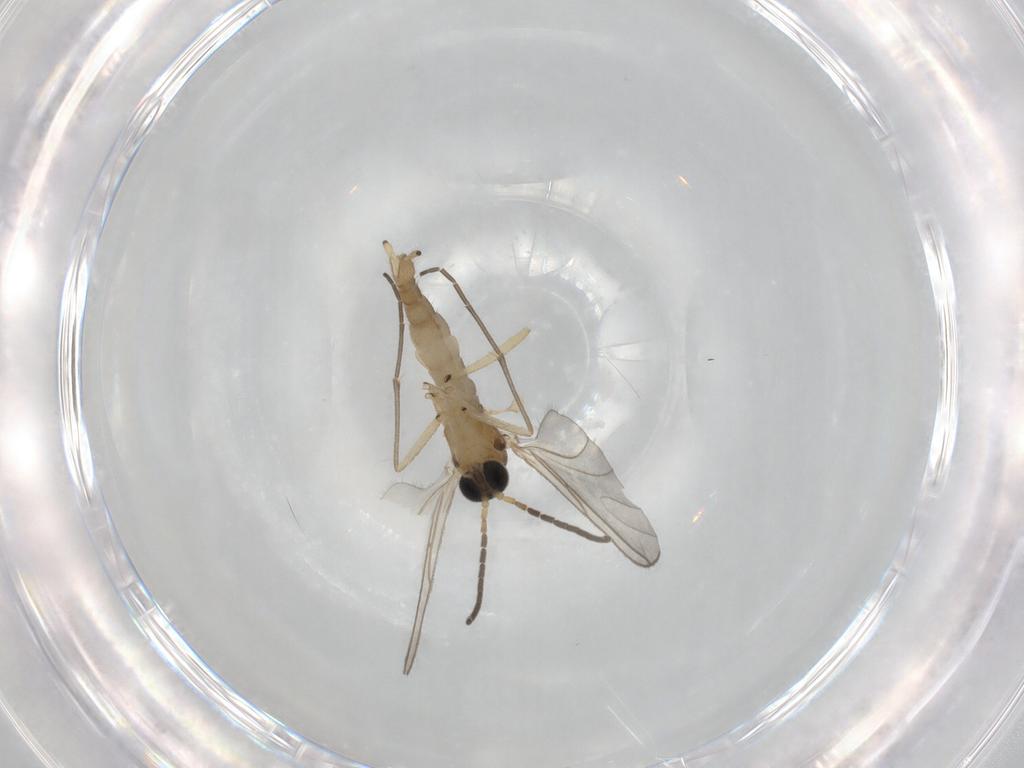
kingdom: Animalia
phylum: Arthropoda
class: Insecta
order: Diptera
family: Sciaridae
